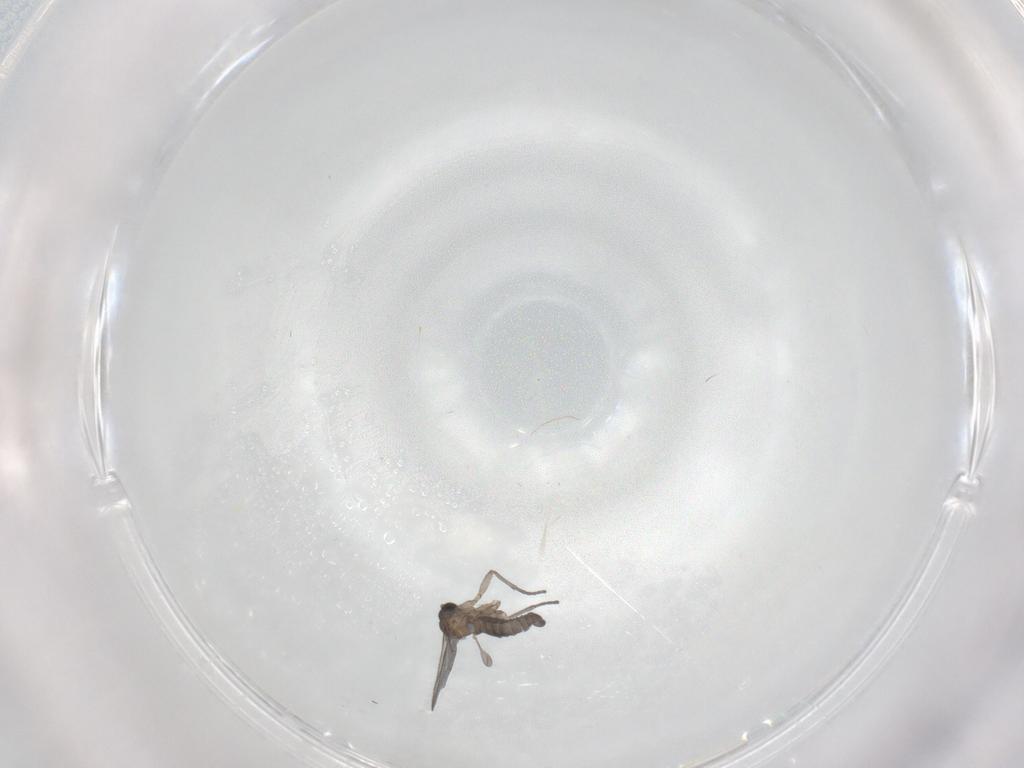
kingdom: Animalia
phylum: Arthropoda
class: Insecta
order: Diptera
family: Sciaridae
